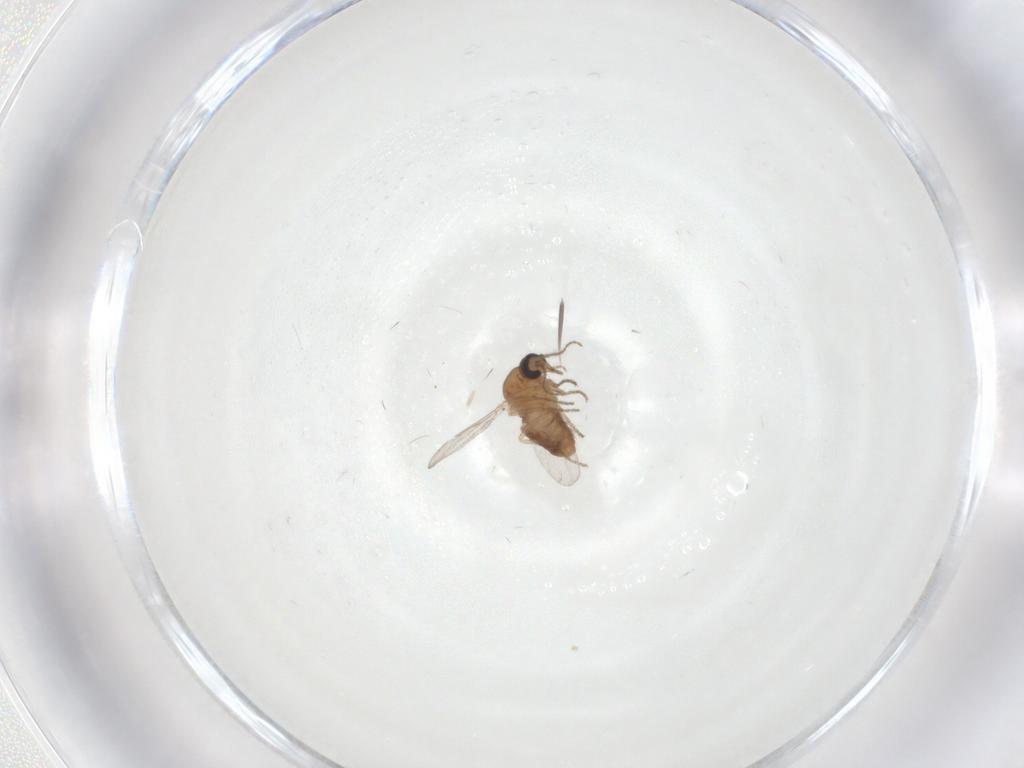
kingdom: Animalia
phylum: Arthropoda
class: Insecta
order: Diptera
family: Ceratopogonidae
